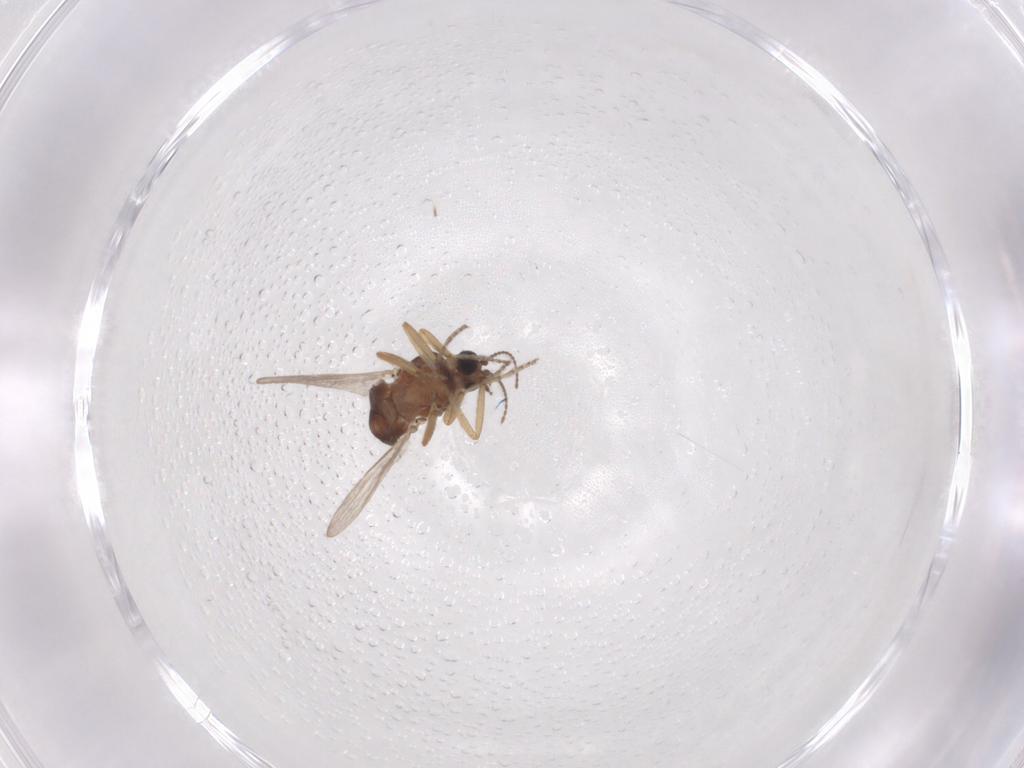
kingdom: Animalia
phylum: Arthropoda
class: Insecta
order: Diptera
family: Ceratopogonidae
